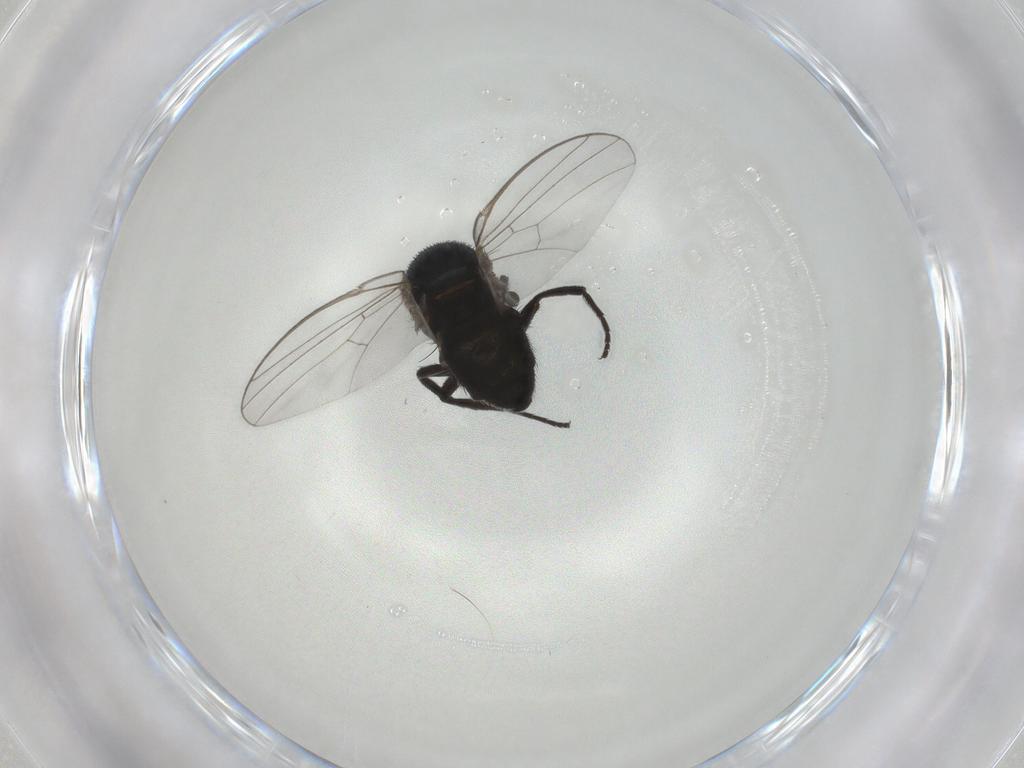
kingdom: Animalia
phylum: Arthropoda
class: Insecta
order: Diptera
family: Agromyzidae
